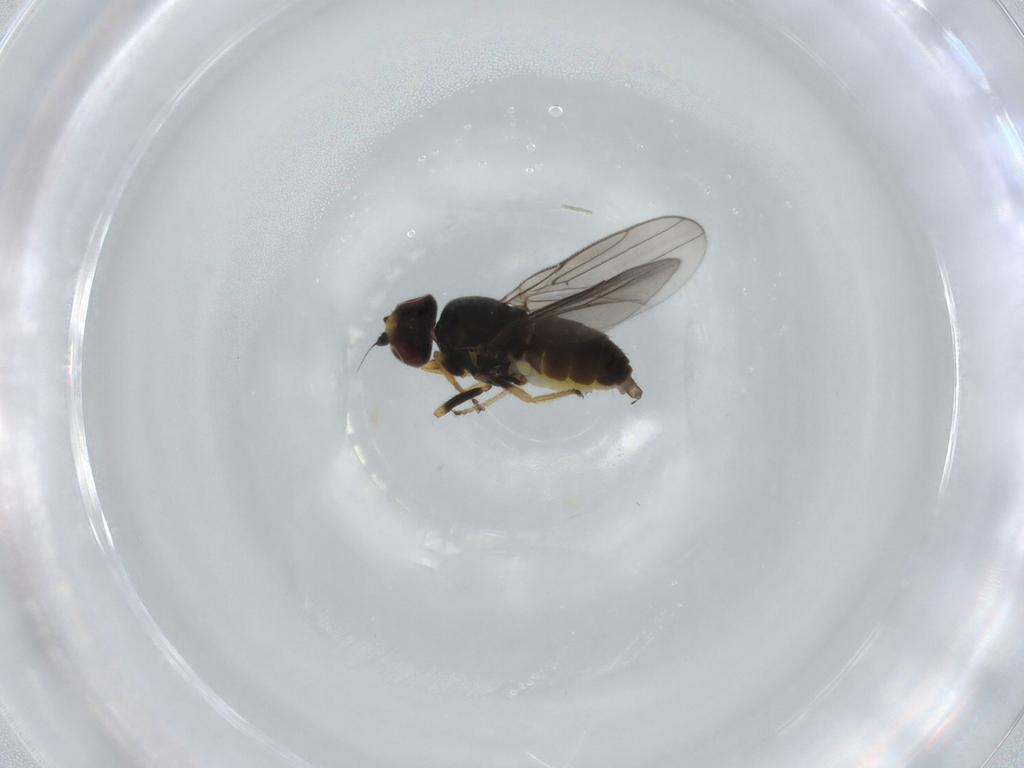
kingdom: Animalia
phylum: Arthropoda
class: Insecta
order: Diptera
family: Chloropidae
